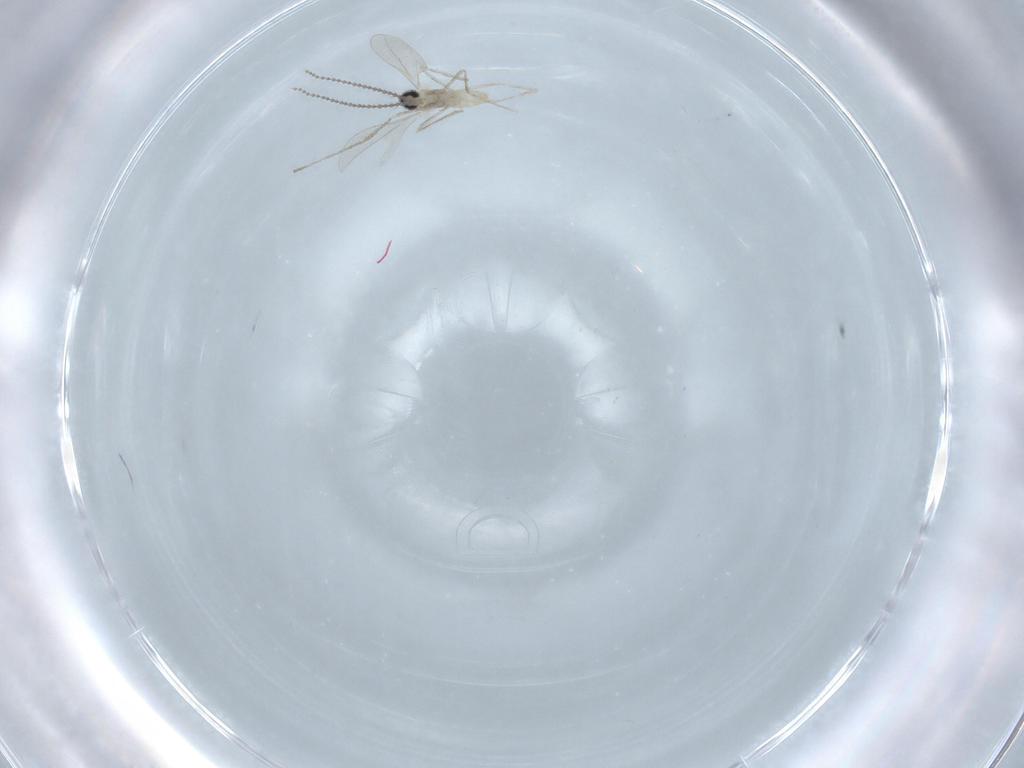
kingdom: Animalia
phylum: Arthropoda
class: Insecta
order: Diptera
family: Cecidomyiidae
